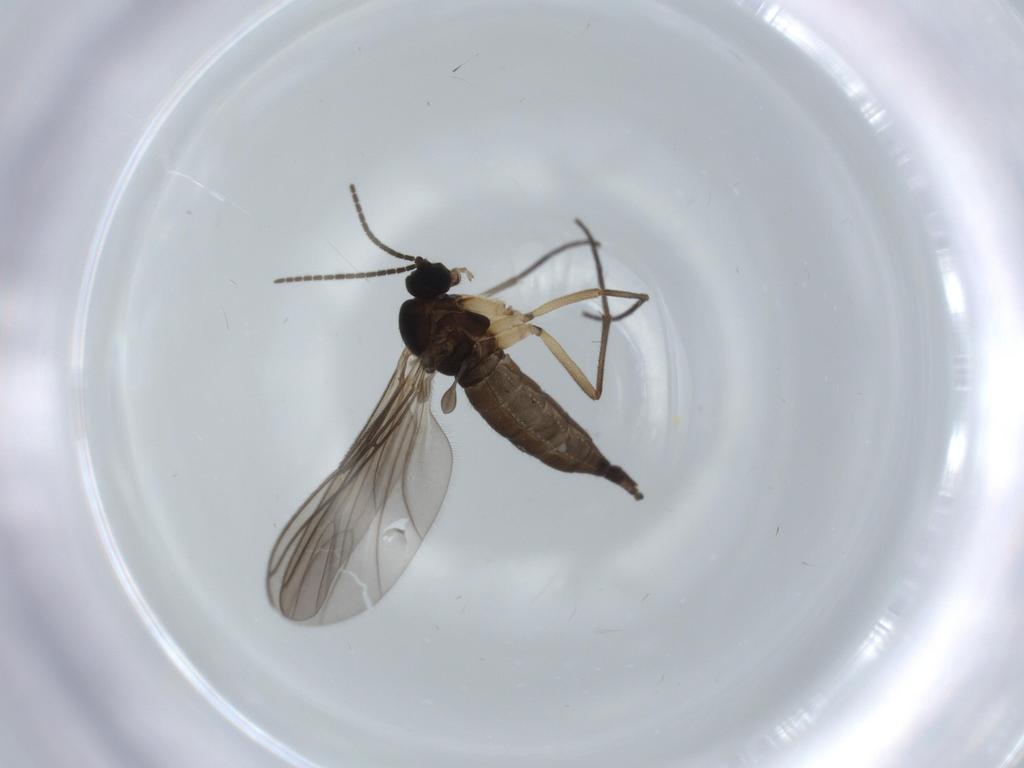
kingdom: Animalia
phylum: Arthropoda
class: Insecta
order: Diptera
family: Sciaridae
